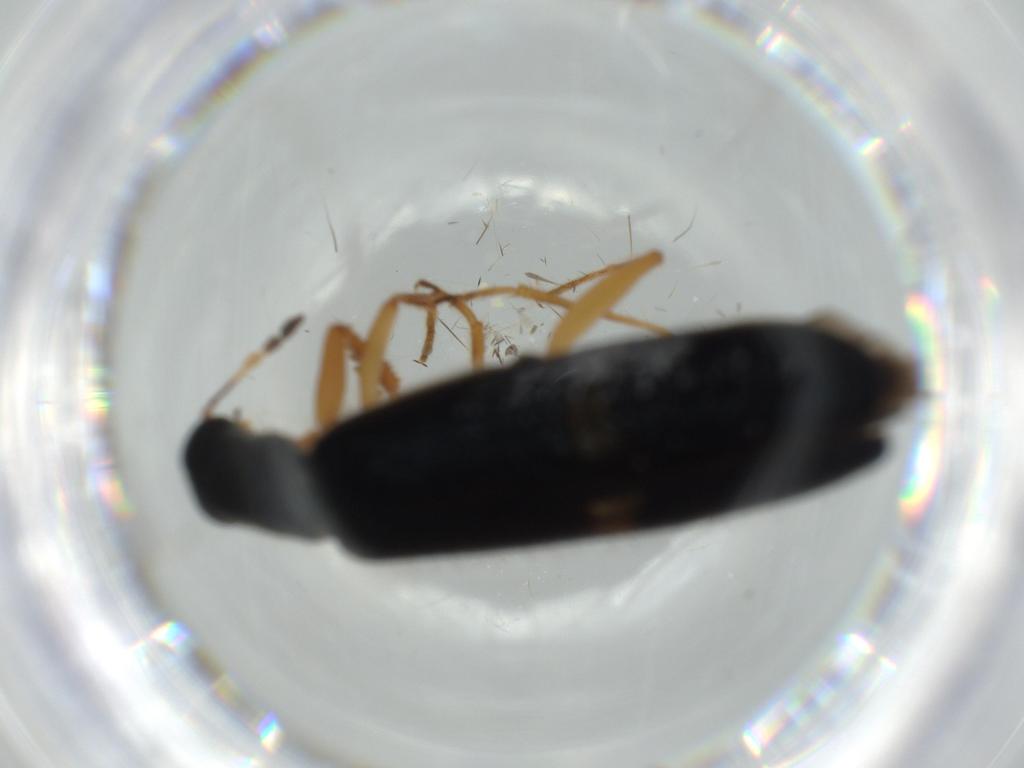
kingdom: Animalia
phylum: Arthropoda
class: Insecta
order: Coleoptera
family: Cleridae
